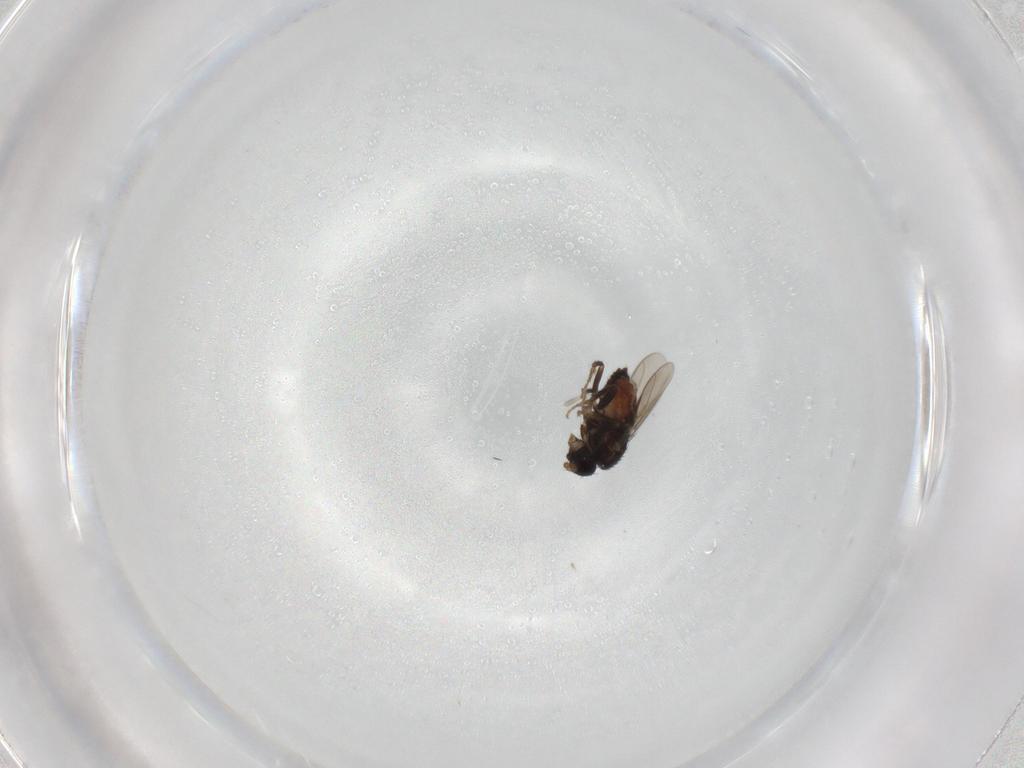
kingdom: Animalia
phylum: Arthropoda
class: Insecta
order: Diptera
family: Sphaeroceridae
